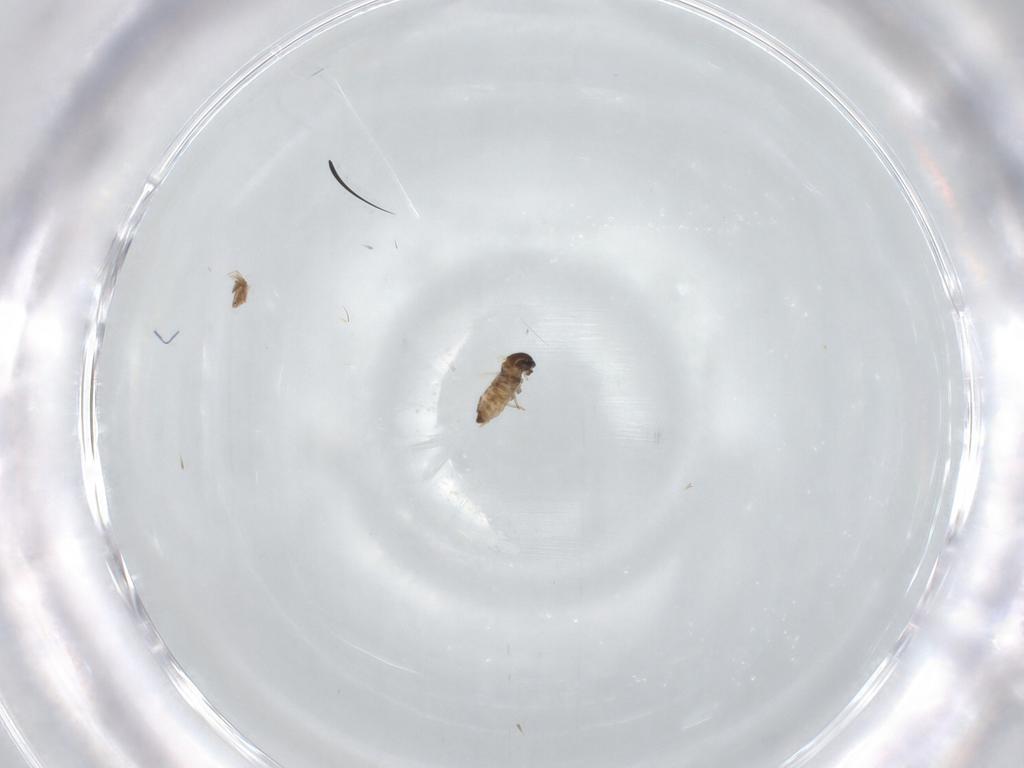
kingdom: Animalia
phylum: Arthropoda
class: Insecta
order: Diptera
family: Cecidomyiidae
